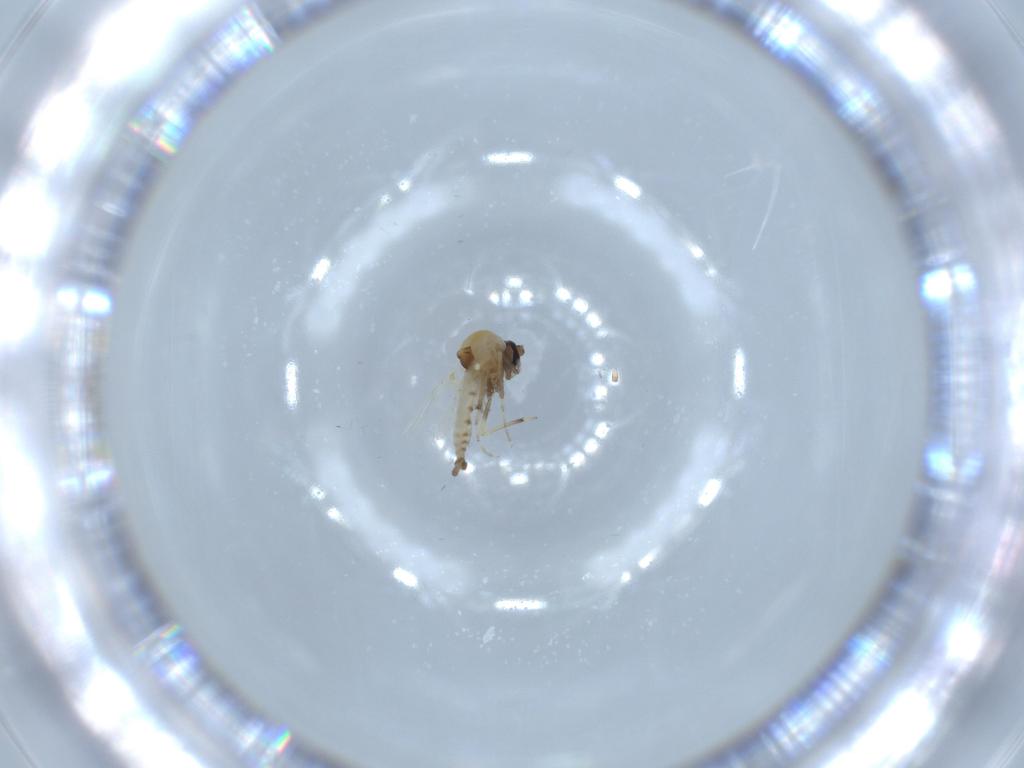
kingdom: Animalia
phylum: Arthropoda
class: Insecta
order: Diptera
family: Ceratopogonidae
